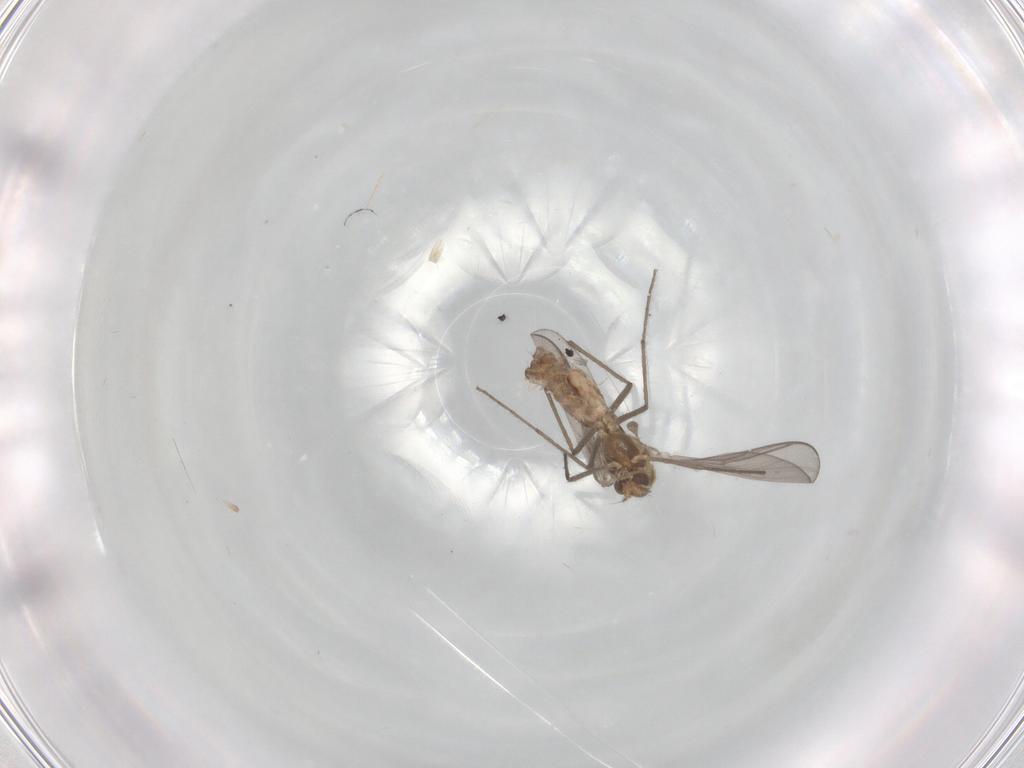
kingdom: Animalia
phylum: Arthropoda
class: Insecta
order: Diptera
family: Chironomidae
